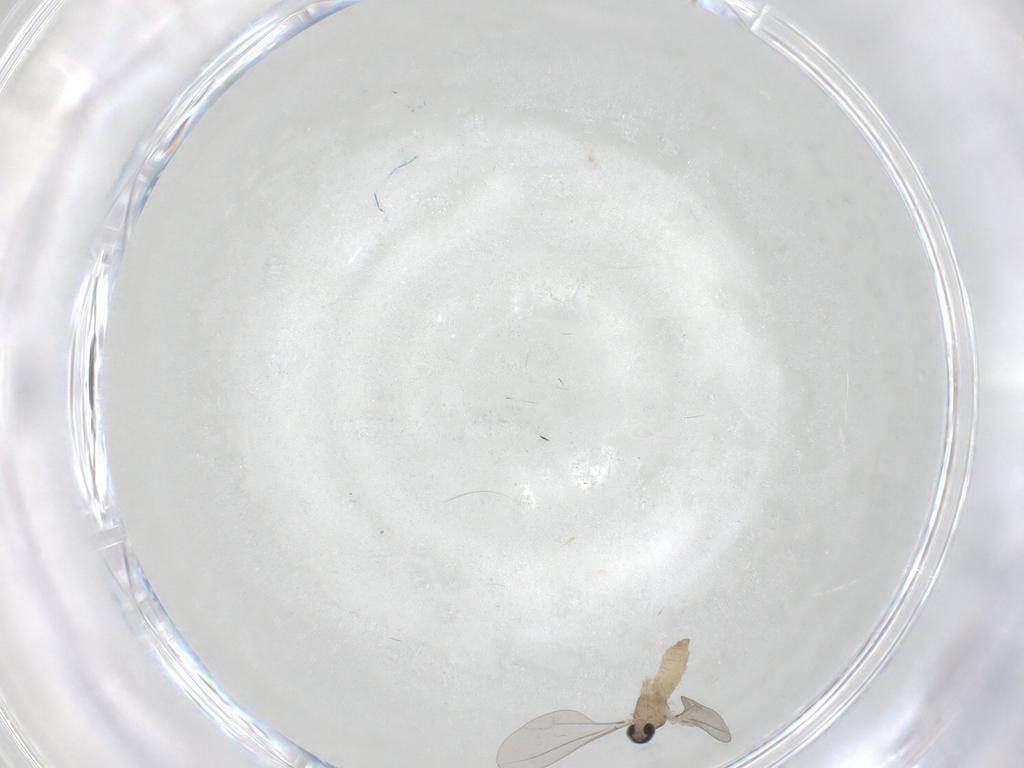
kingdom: Animalia
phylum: Arthropoda
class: Insecta
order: Diptera
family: Cecidomyiidae
